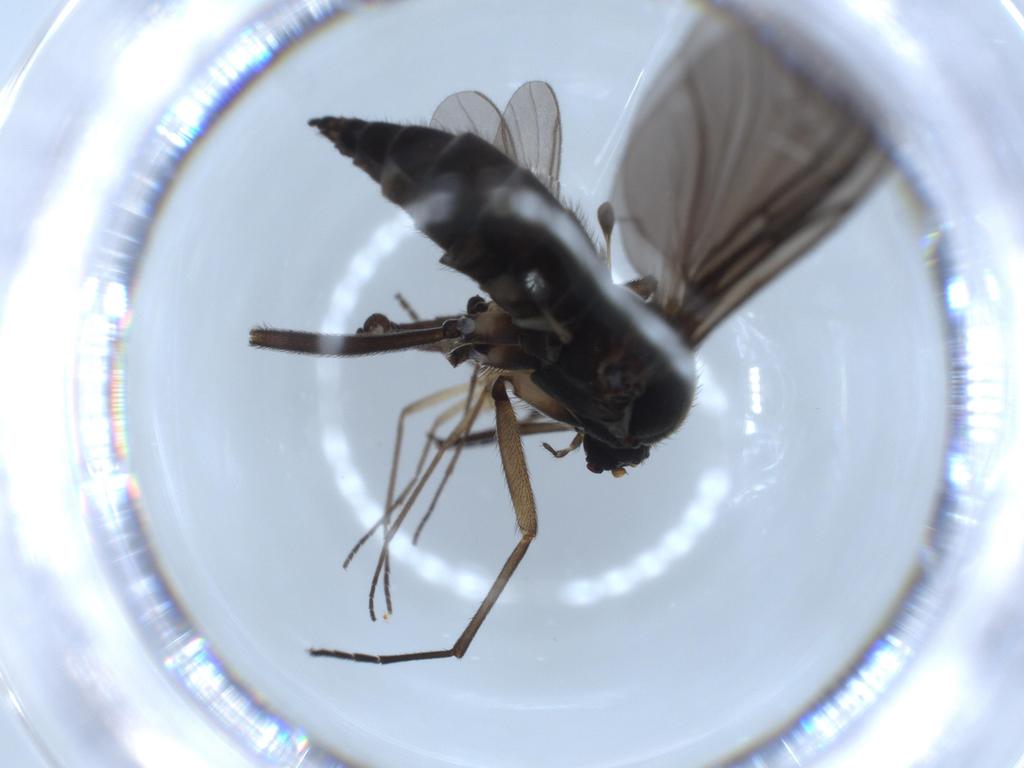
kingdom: Animalia
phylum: Arthropoda
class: Insecta
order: Diptera
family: Sciaridae
